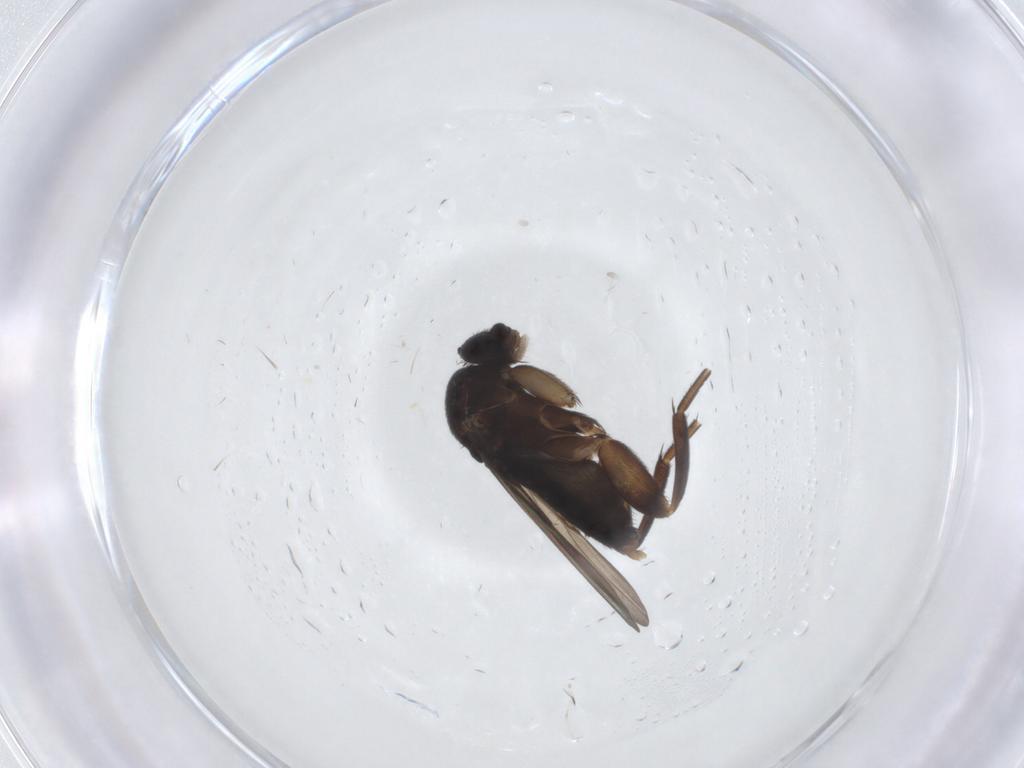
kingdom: Animalia
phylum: Arthropoda
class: Insecta
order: Diptera
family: Phoridae
